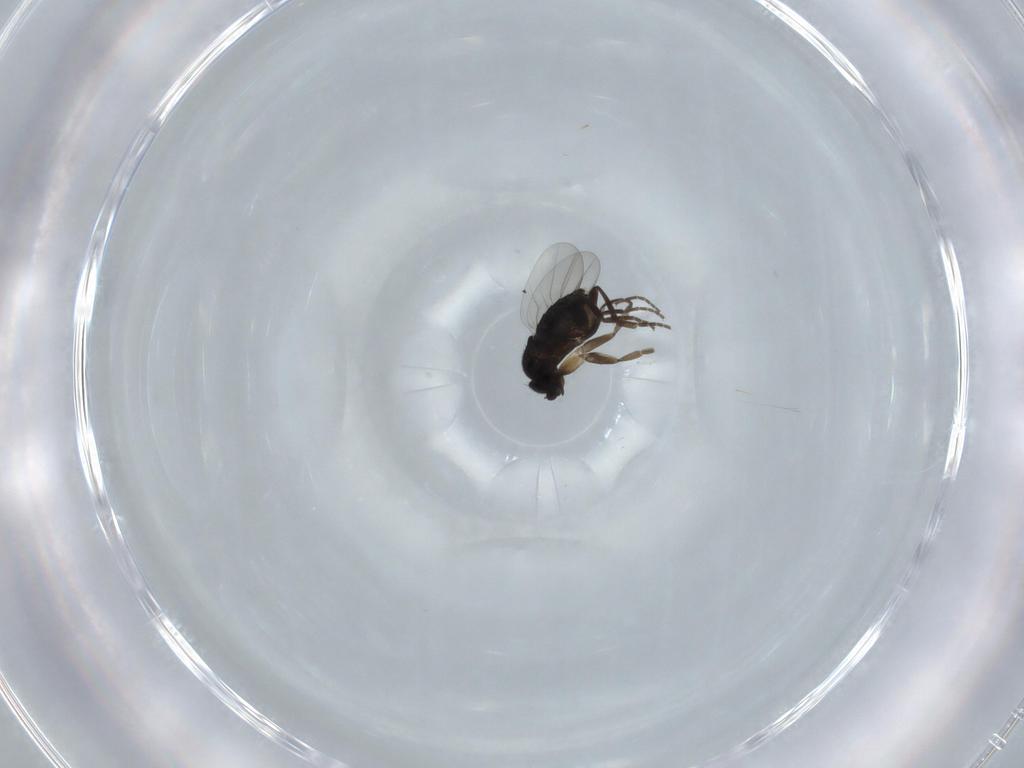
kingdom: Animalia
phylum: Arthropoda
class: Insecta
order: Diptera
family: Phoridae
